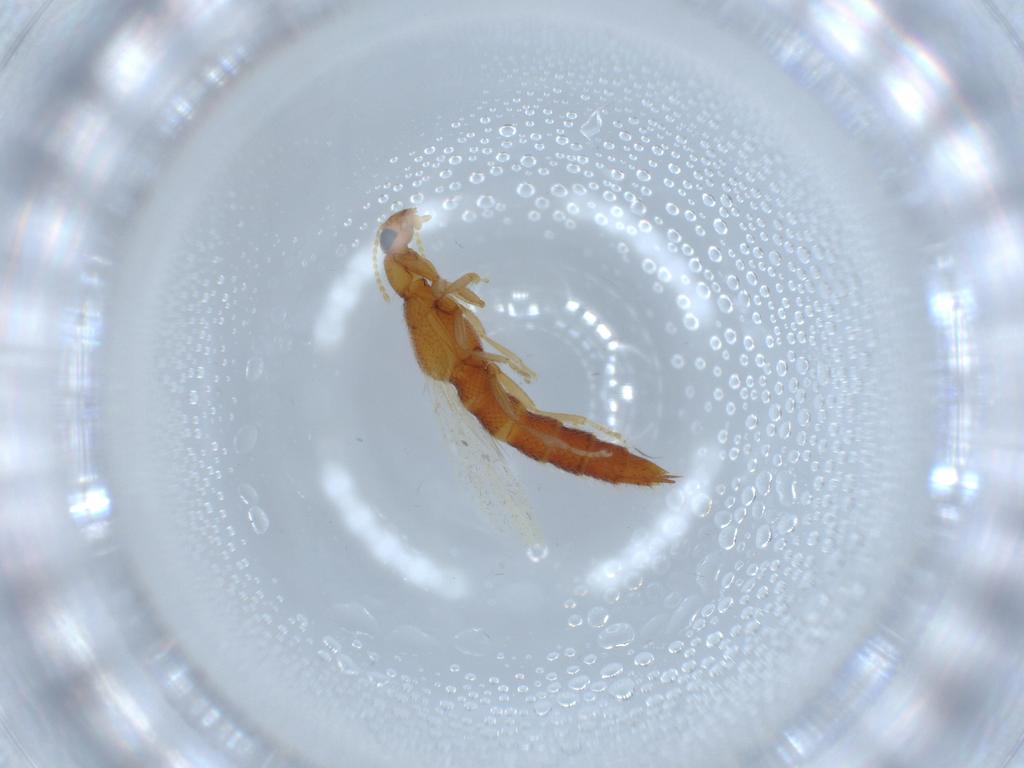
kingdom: Animalia
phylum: Arthropoda
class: Insecta
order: Coleoptera
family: Staphylinidae
